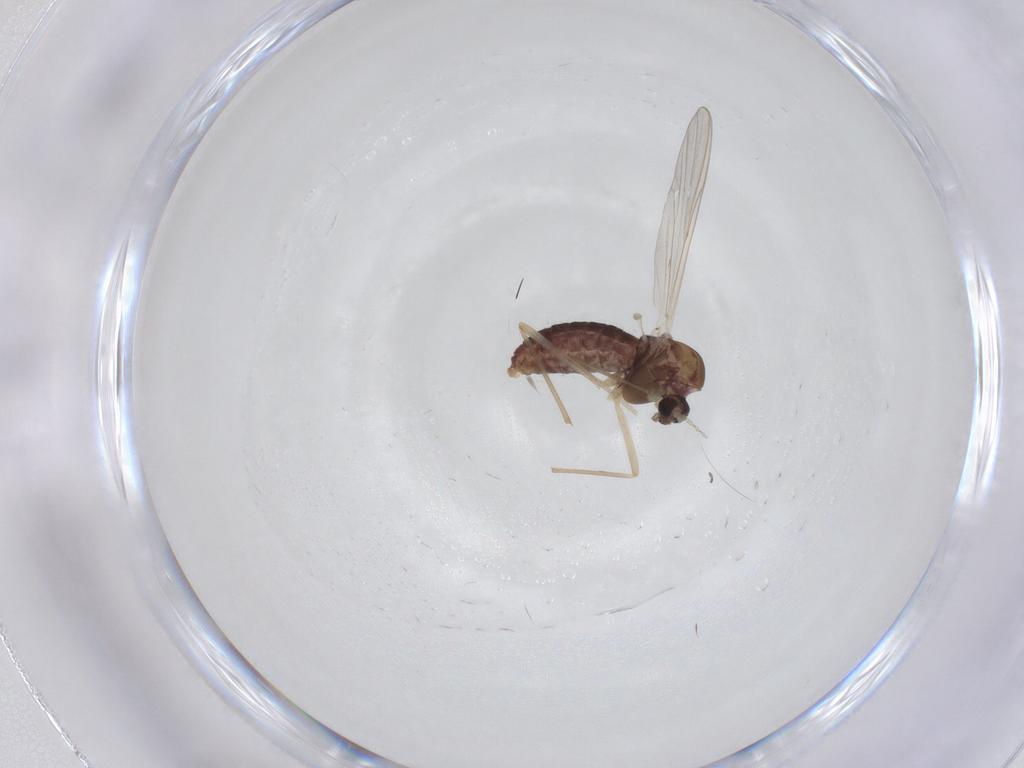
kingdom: Animalia
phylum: Arthropoda
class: Insecta
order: Diptera
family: Chironomidae
